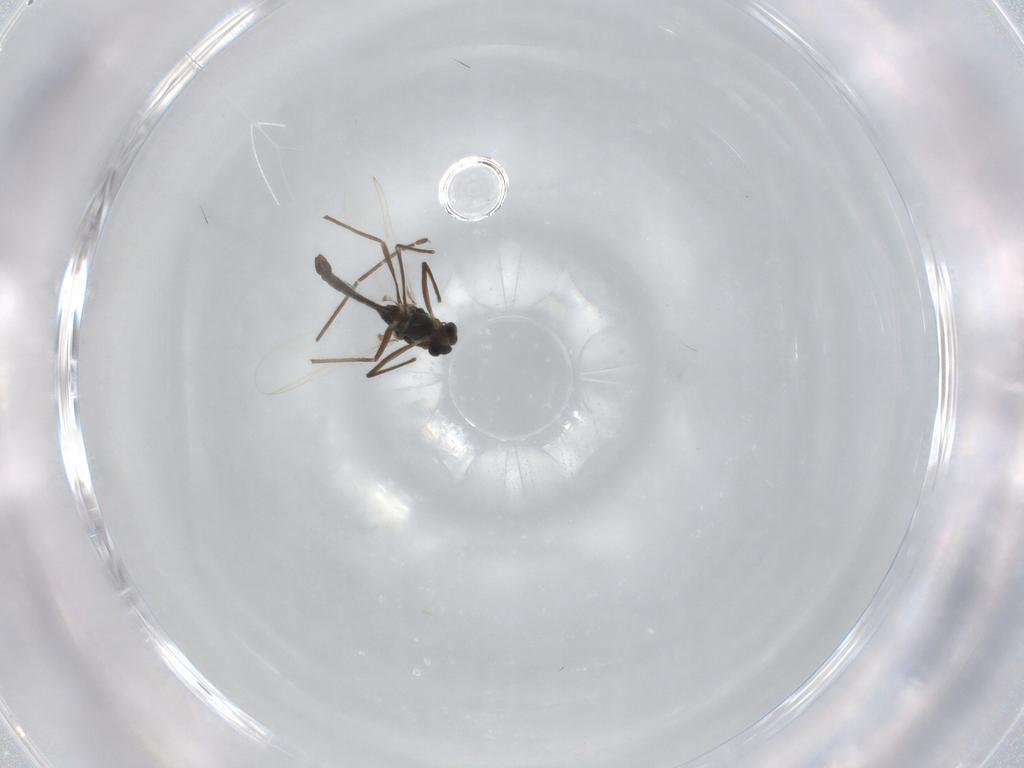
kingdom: Animalia
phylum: Arthropoda
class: Insecta
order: Diptera
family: Chironomidae
